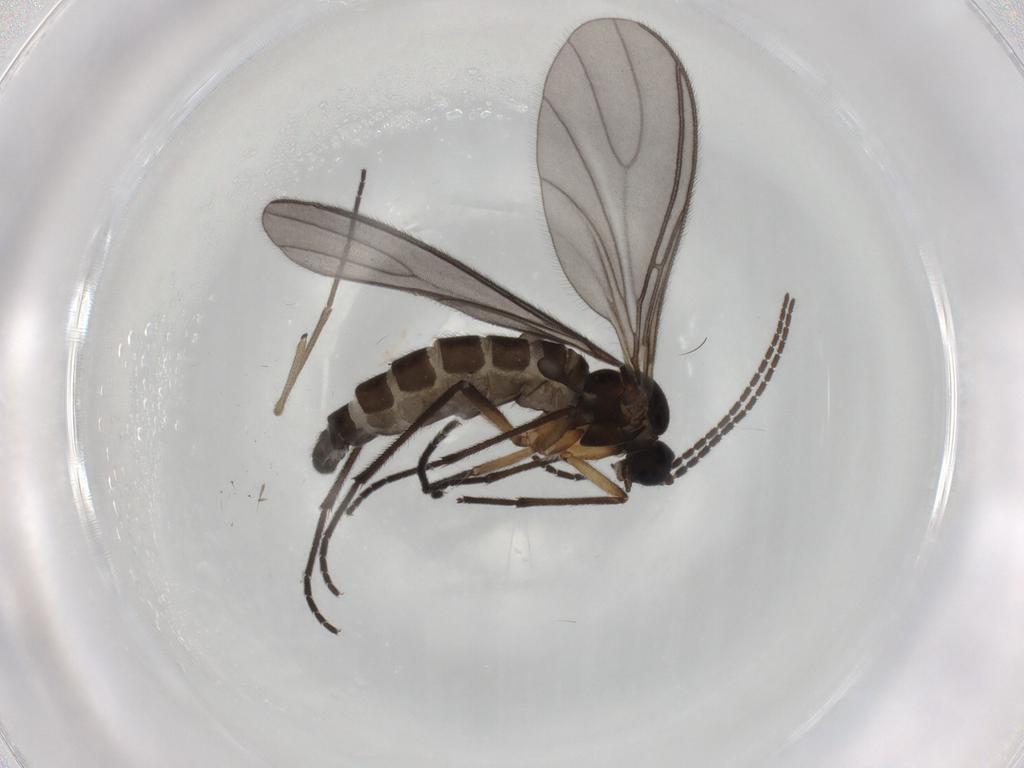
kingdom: Animalia
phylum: Arthropoda
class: Insecta
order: Diptera
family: Sciaridae
